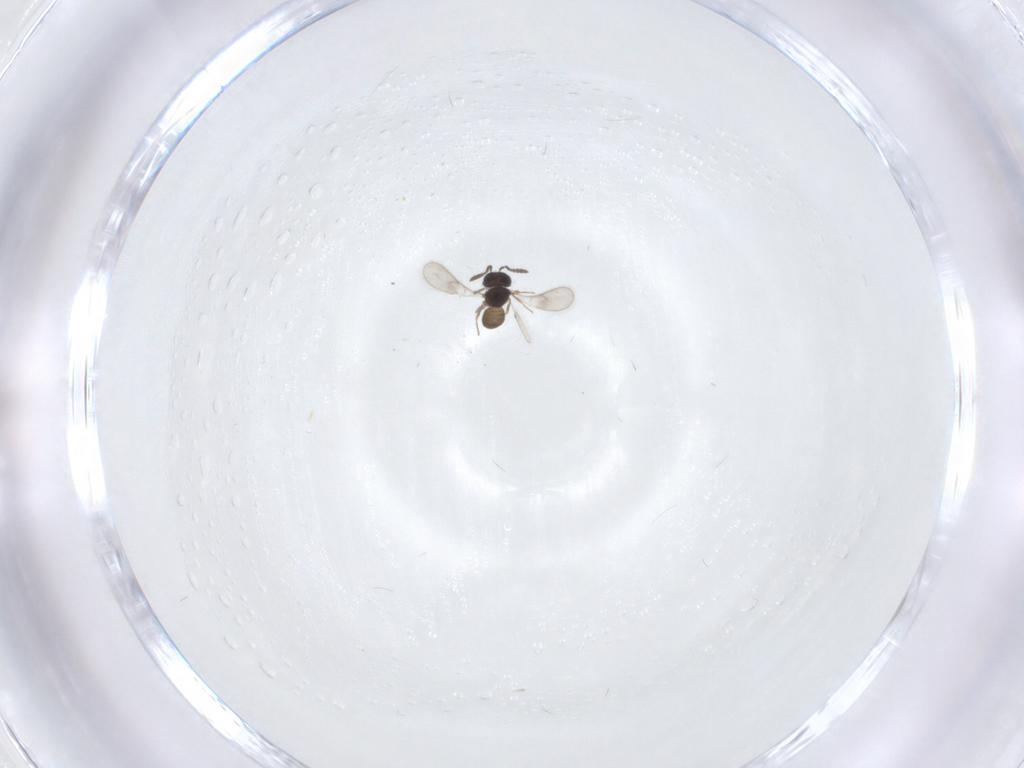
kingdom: Animalia
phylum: Arthropoda
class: Insecta
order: Hymenoptera
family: Scelionidae
